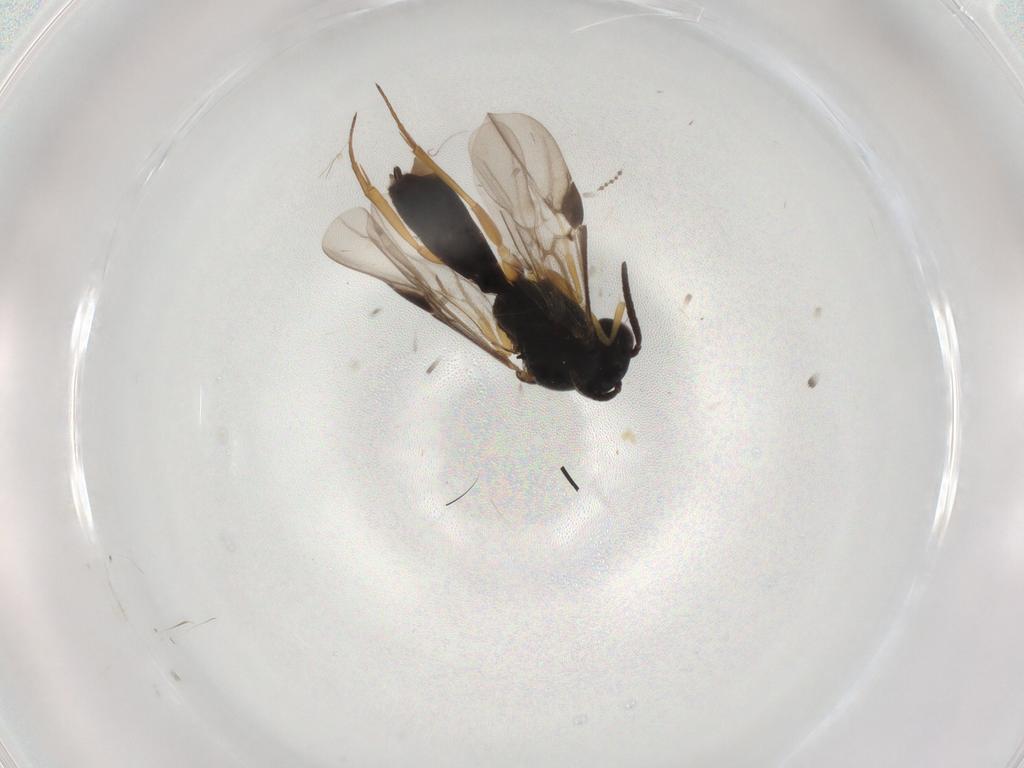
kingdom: Animalia
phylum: Arthropoda
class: Insecta
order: Hymenoptera
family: Braconidae
